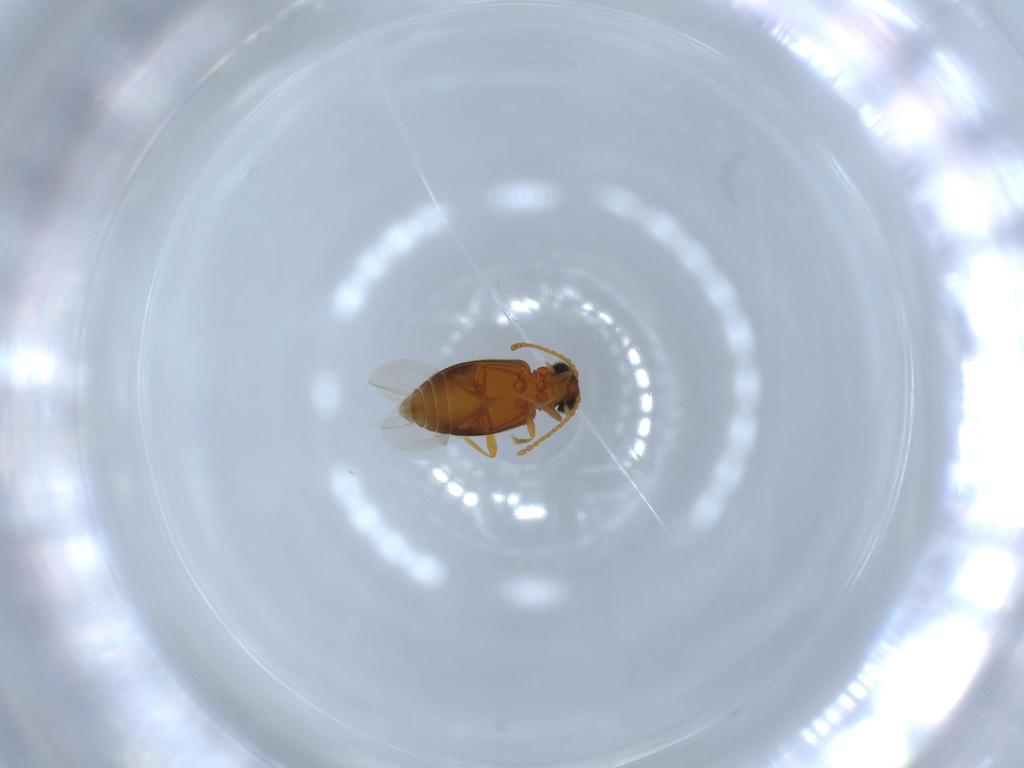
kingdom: Animalia
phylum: Arthropoda
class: Insecta
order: Coleoptera
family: Aderidae
